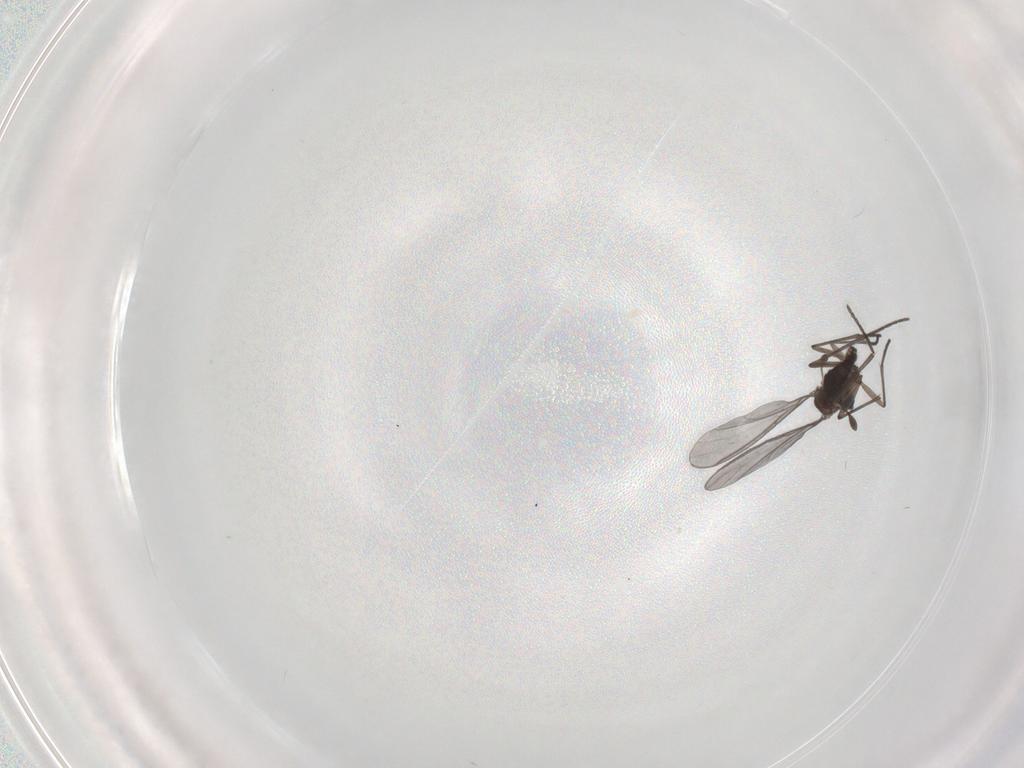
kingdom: Animalia
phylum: Arthropoda
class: Insecta
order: Diptera
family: Sciaridae
